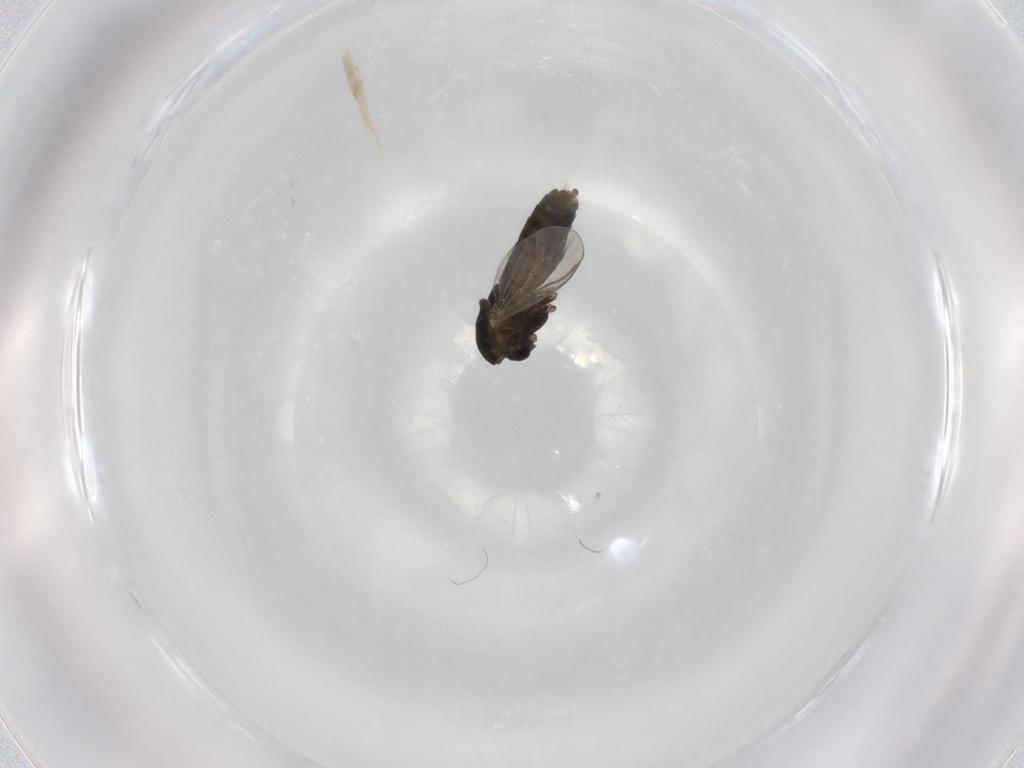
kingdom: Animalia
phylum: Arthropoda
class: Insecta
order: Diptera
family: Chironomidae
